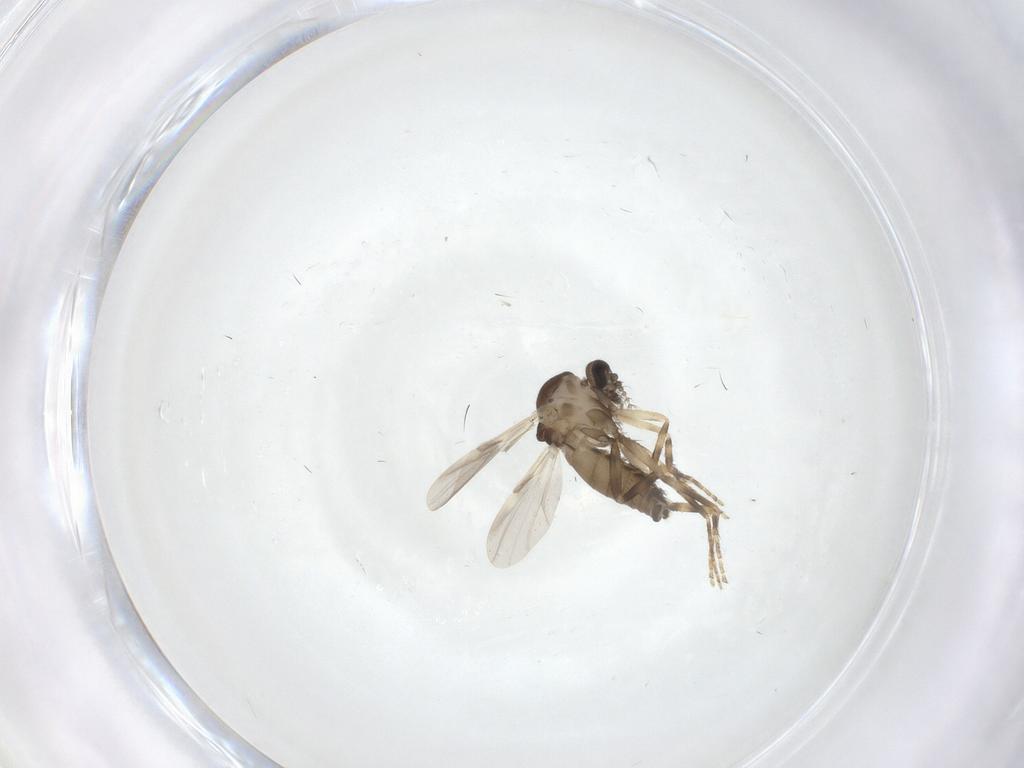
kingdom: Animalia
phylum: Arthropoda
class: Insecta
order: Diptera
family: Ceratopogonidae
